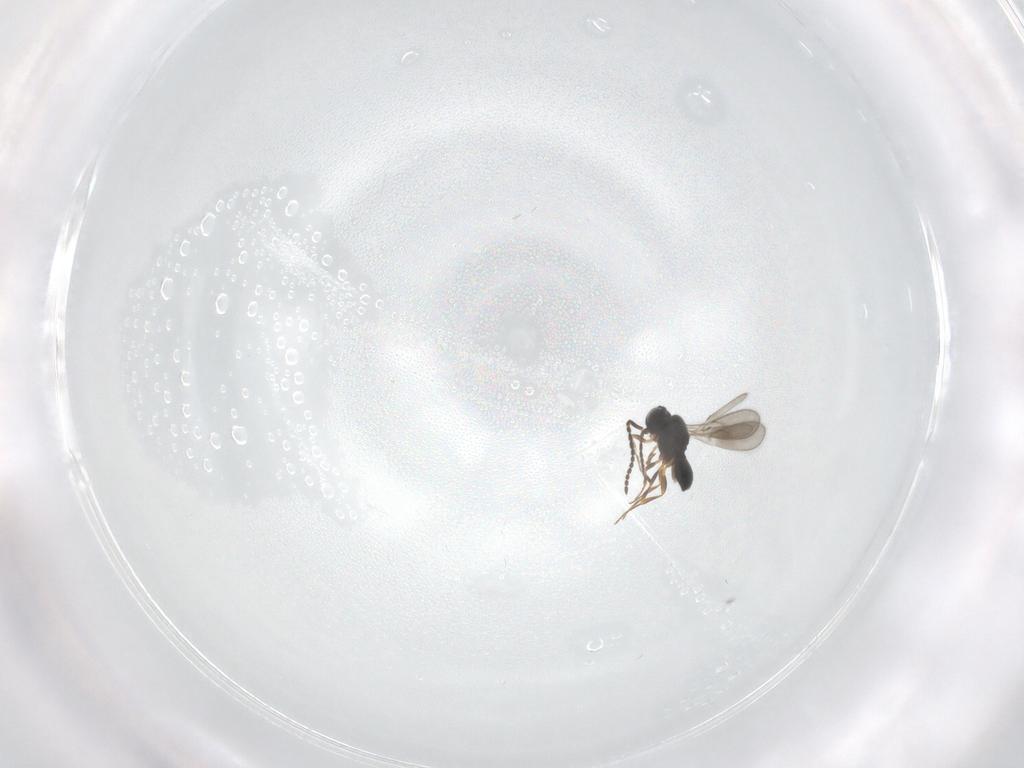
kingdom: Animalia
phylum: Arthropoda
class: Insecta
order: Hymenoptera
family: Scelionidae
